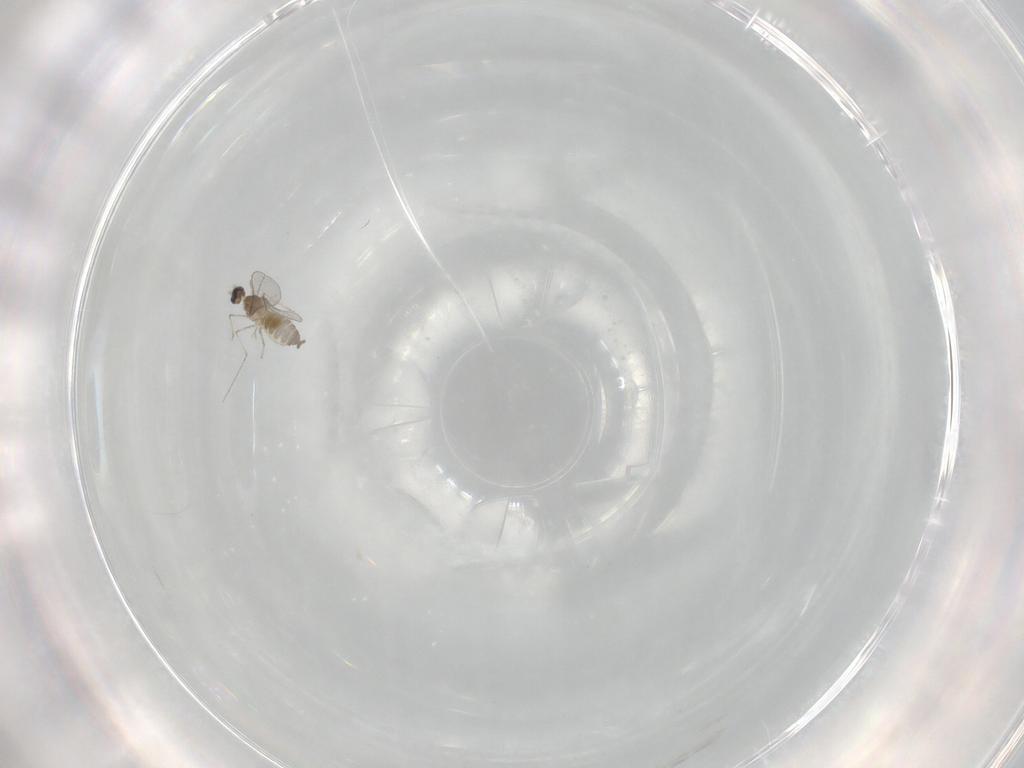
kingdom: Animalia
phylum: Arthropoda
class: Insecta
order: Diptera
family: Cecidomyiidae
